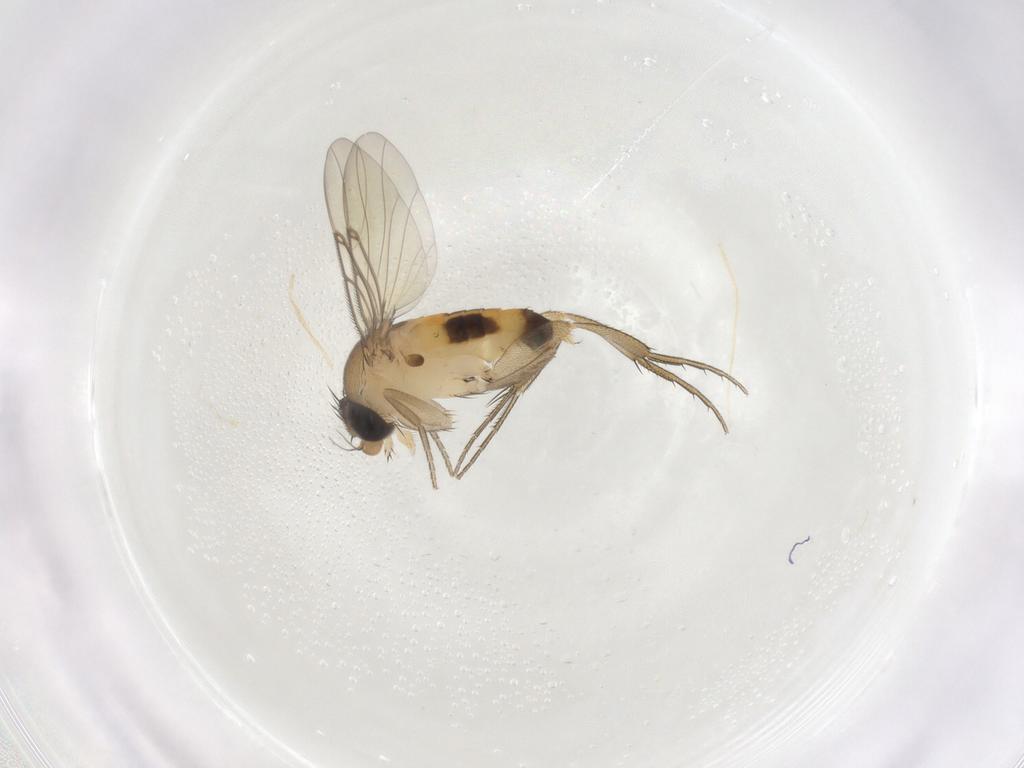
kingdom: Animalia
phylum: Arthropoda
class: Insecta
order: Diptera
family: Phoridae
